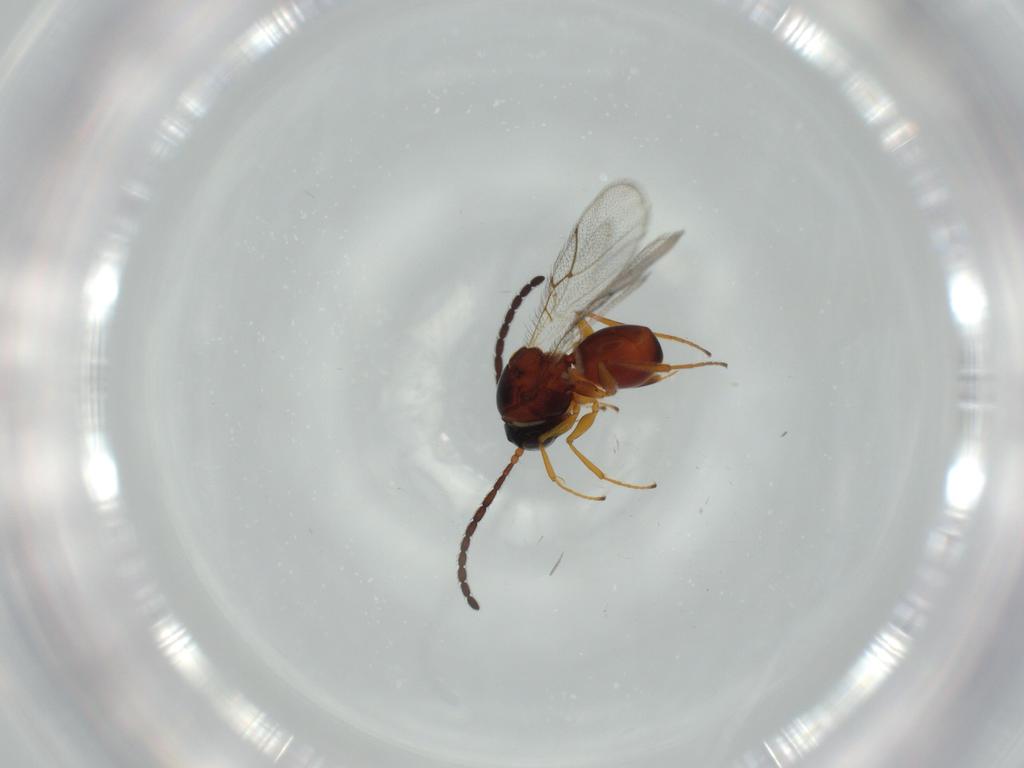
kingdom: Animalia
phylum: Arthropoda
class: Insecta
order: Hymenoptera
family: Figitidae
